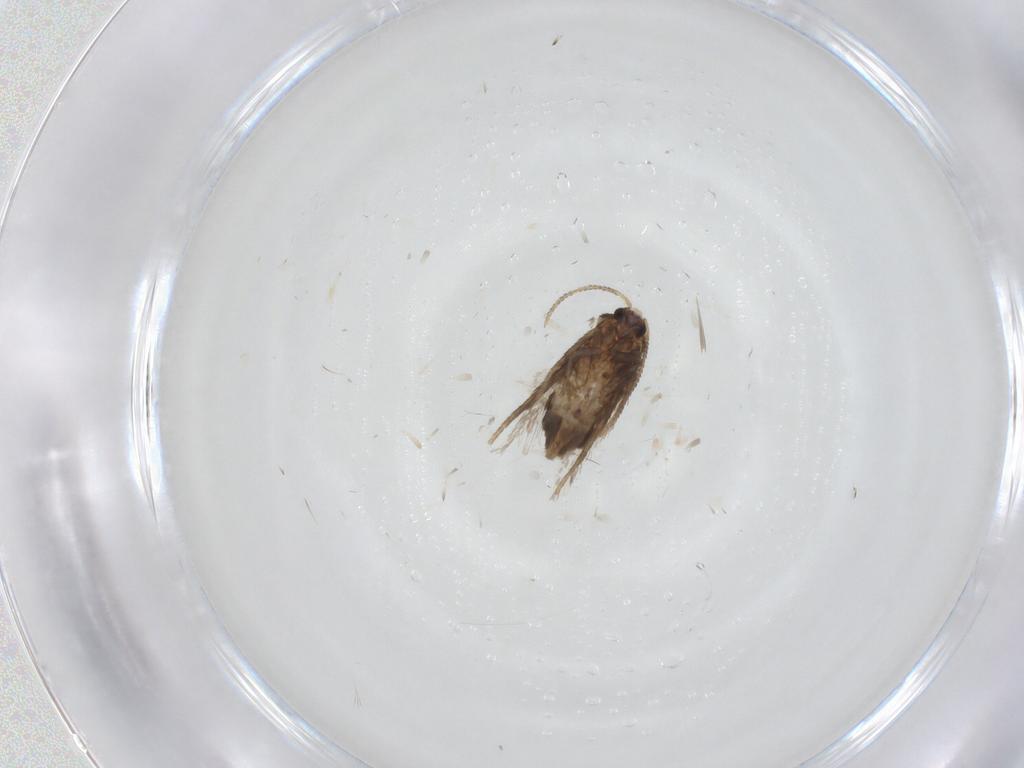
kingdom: Animalia
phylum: Arthropoda
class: Insecta
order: Lepidoptera
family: Nepticulidae
